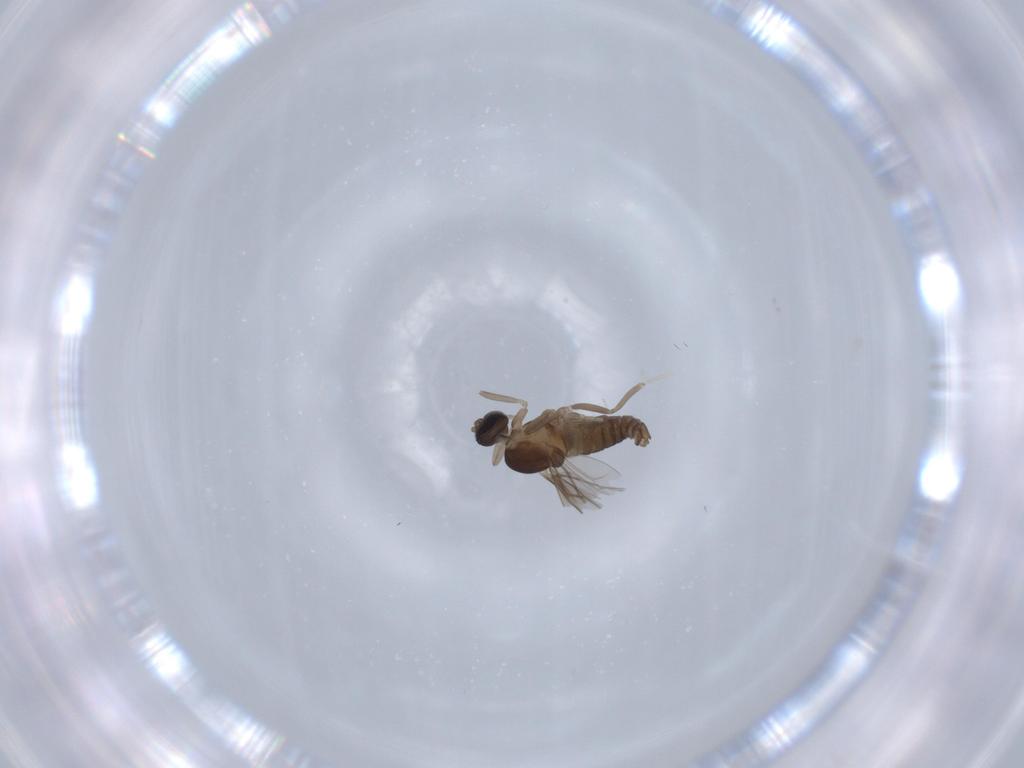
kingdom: Animalia
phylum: Arthropoda
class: Insecta
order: Diptera
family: Cecidomyiidae
